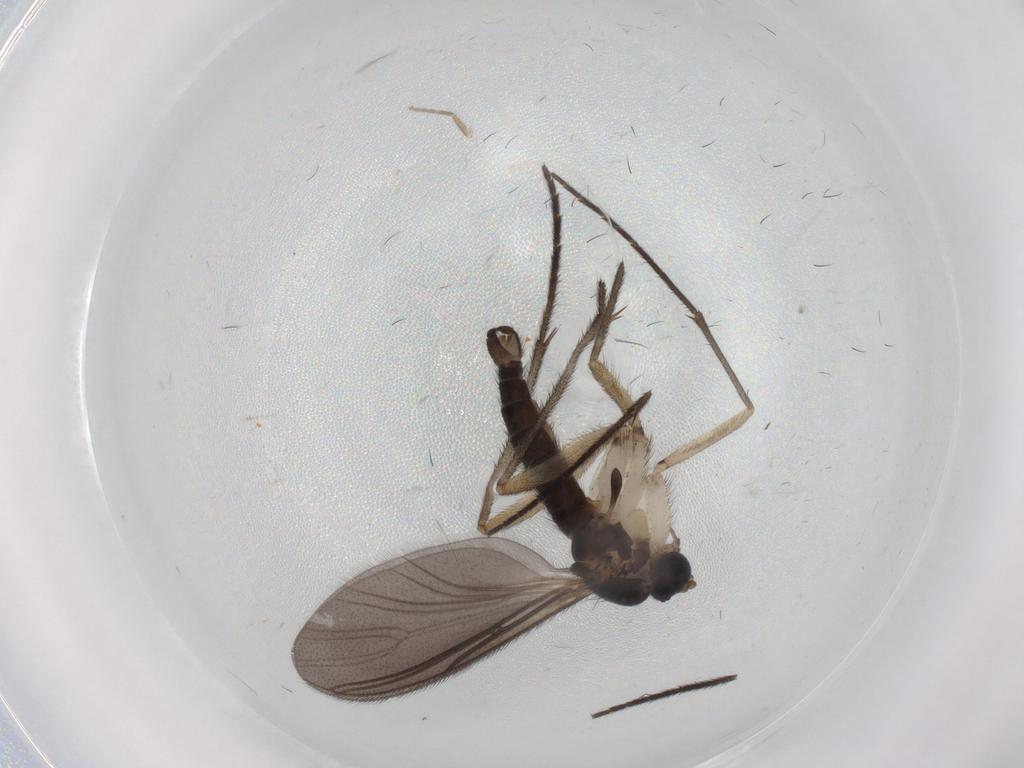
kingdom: Animalia
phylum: Arthropoda
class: Insecta
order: Diptera
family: Sciaridae
